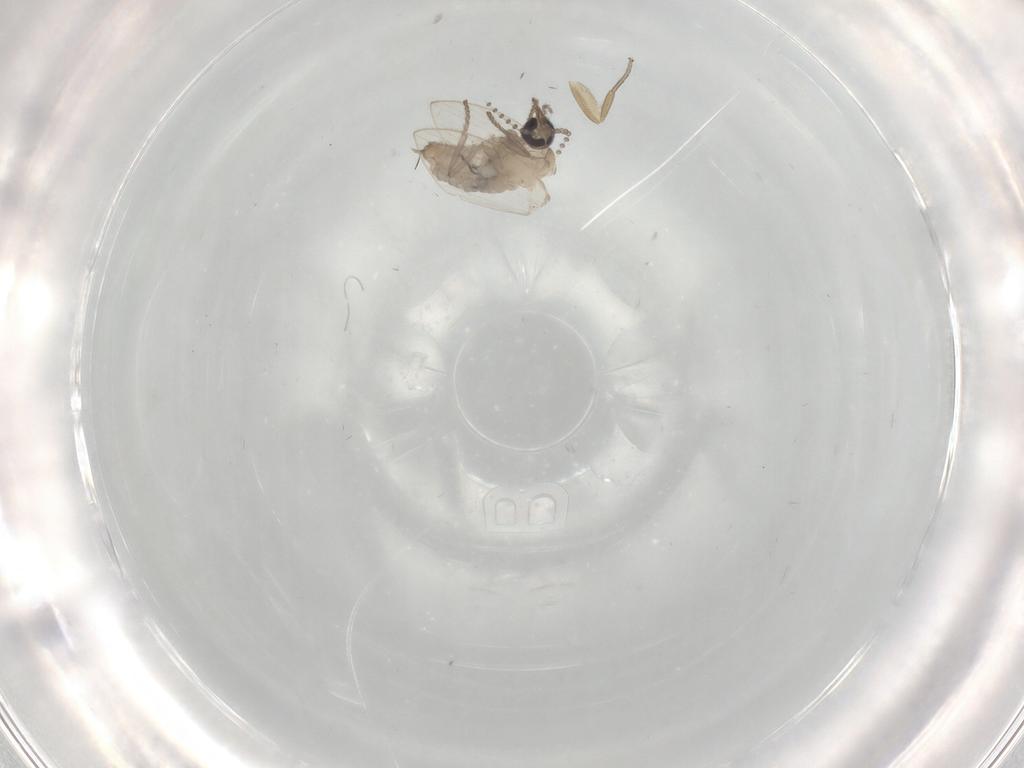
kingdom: Animalia
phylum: Arthropoda
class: Insecta
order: Diptera
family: Psychodidae
